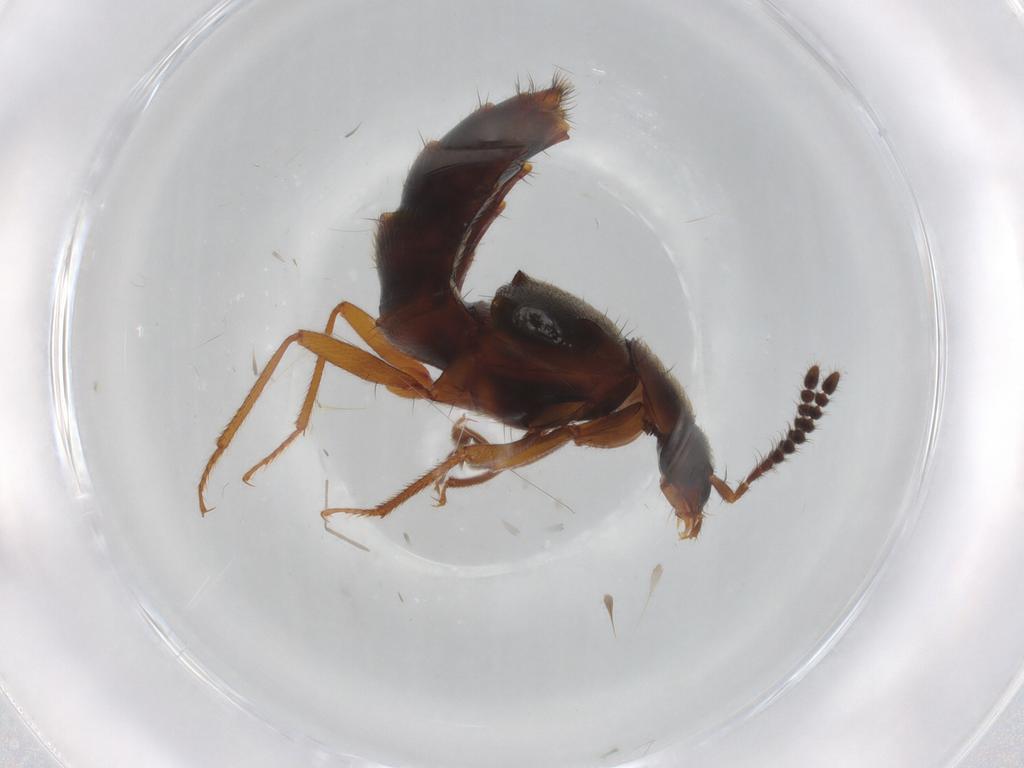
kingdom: Animalia
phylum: Arthropoda
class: Insecta
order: Coleoptera
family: Staphylinidae
